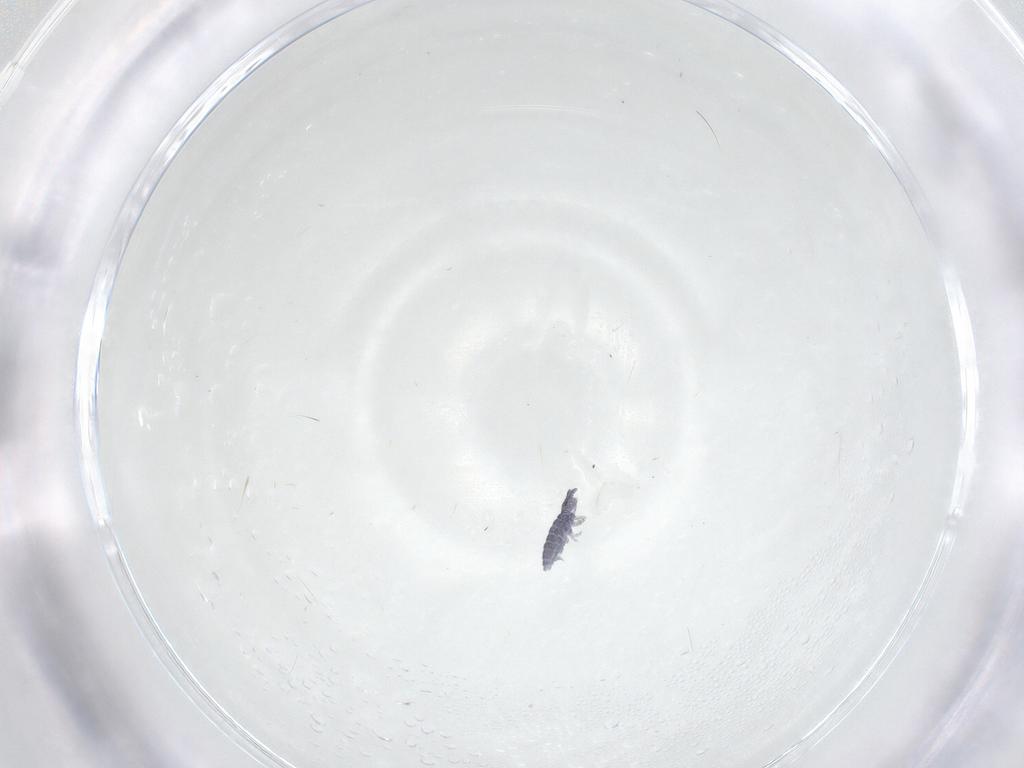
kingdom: Animalia
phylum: Arthropoda
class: Collembola
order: Poduromorpha
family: Hypogastruridae
